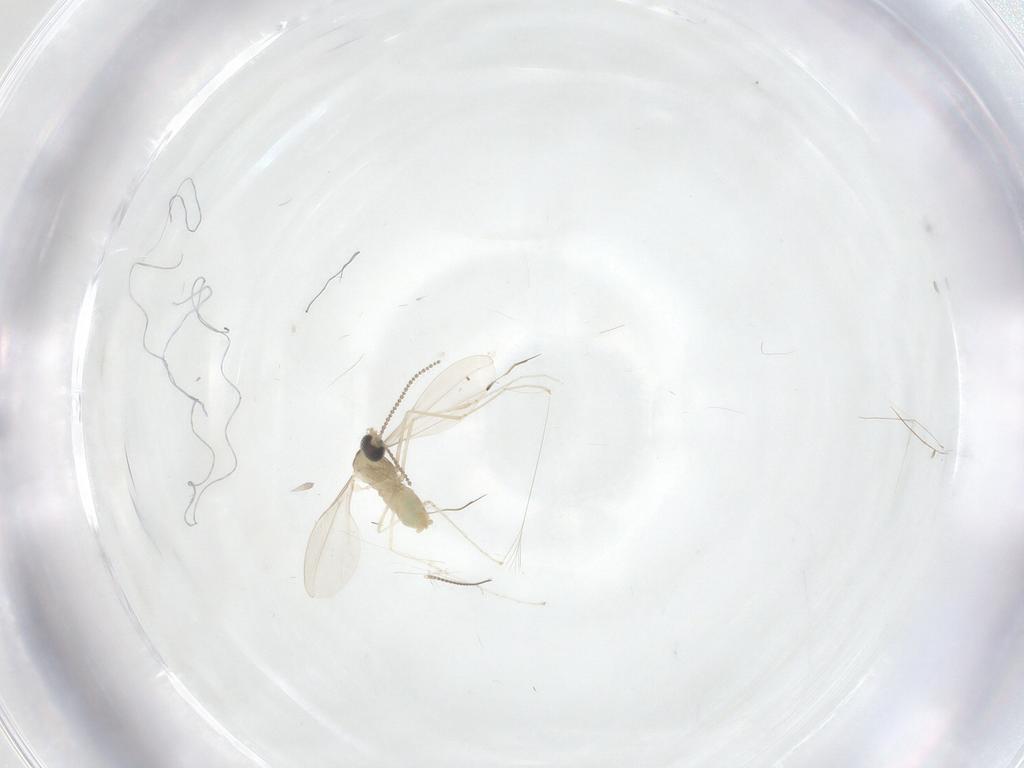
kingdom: Animalia
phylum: Arthropoda
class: Insecta
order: Diptera
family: Cecidomyiidae
